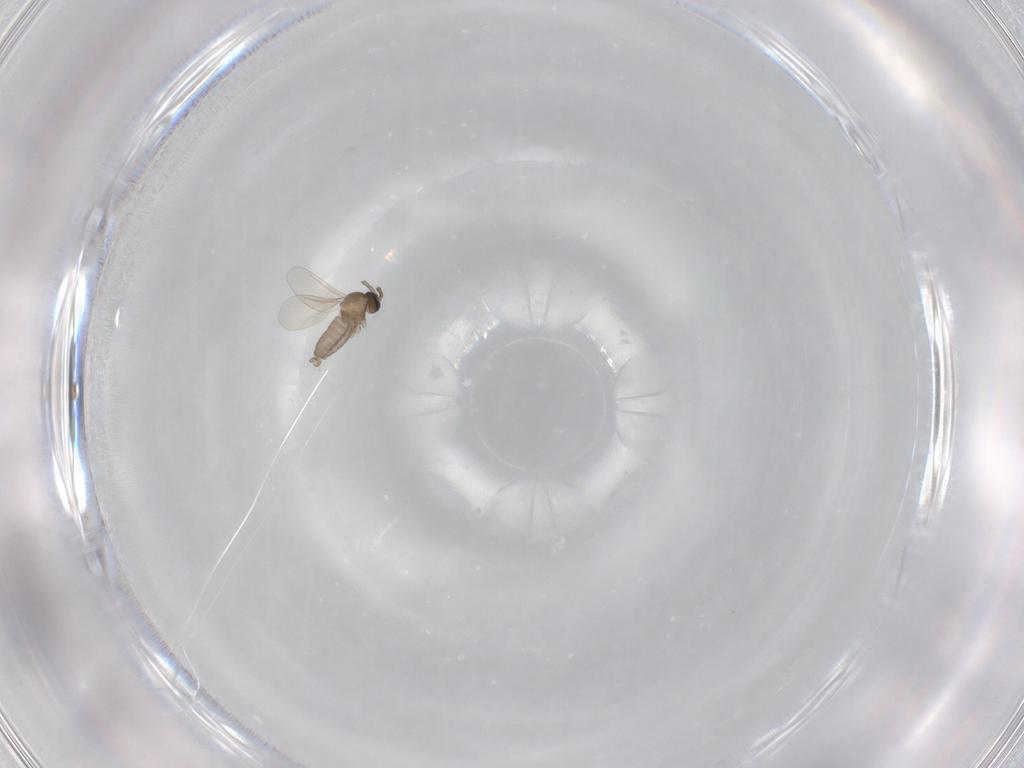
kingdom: Animalia
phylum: Arthropoda
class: Insecta
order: Diptera
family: Cecidomyiidae
